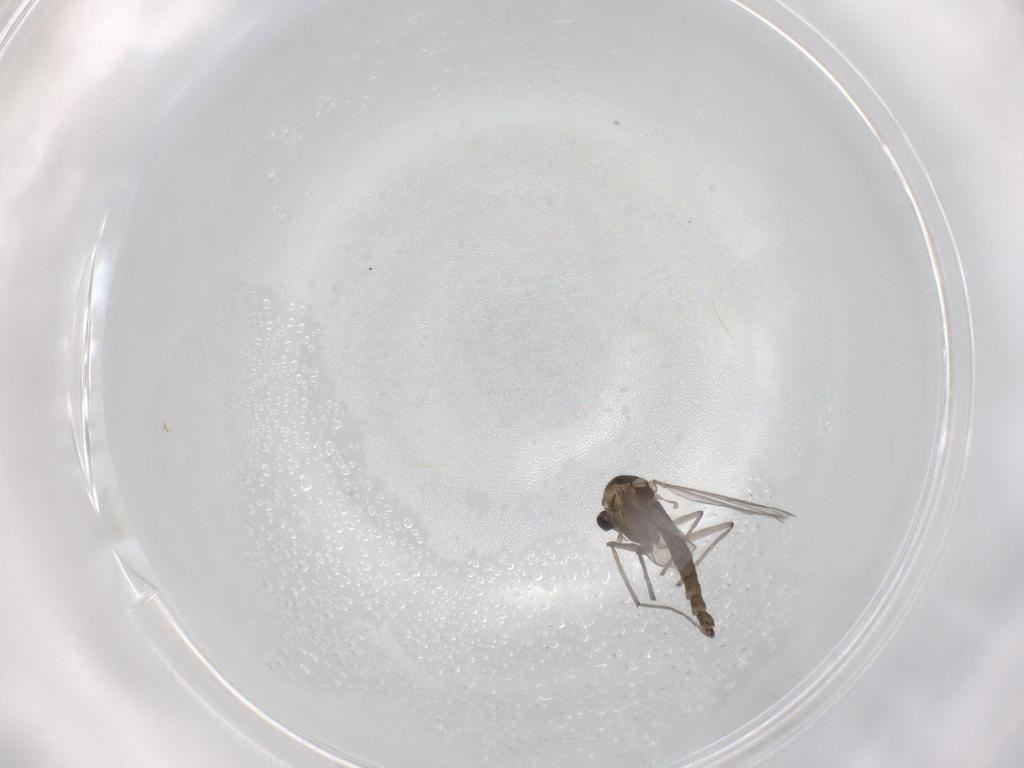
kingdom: Animalia
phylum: Arthropoda
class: Insecta
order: Diptera
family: Chironomidae
